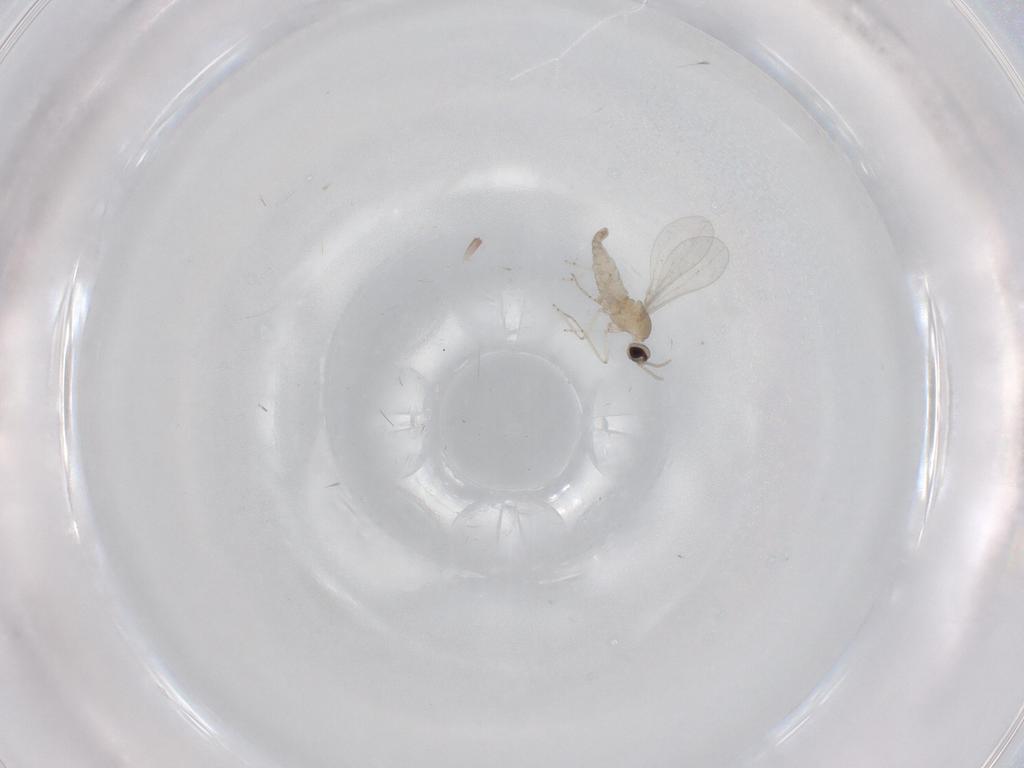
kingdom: Animalia
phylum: Arthropoda
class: Insecta
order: Diptera
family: Cecidomyiidae
